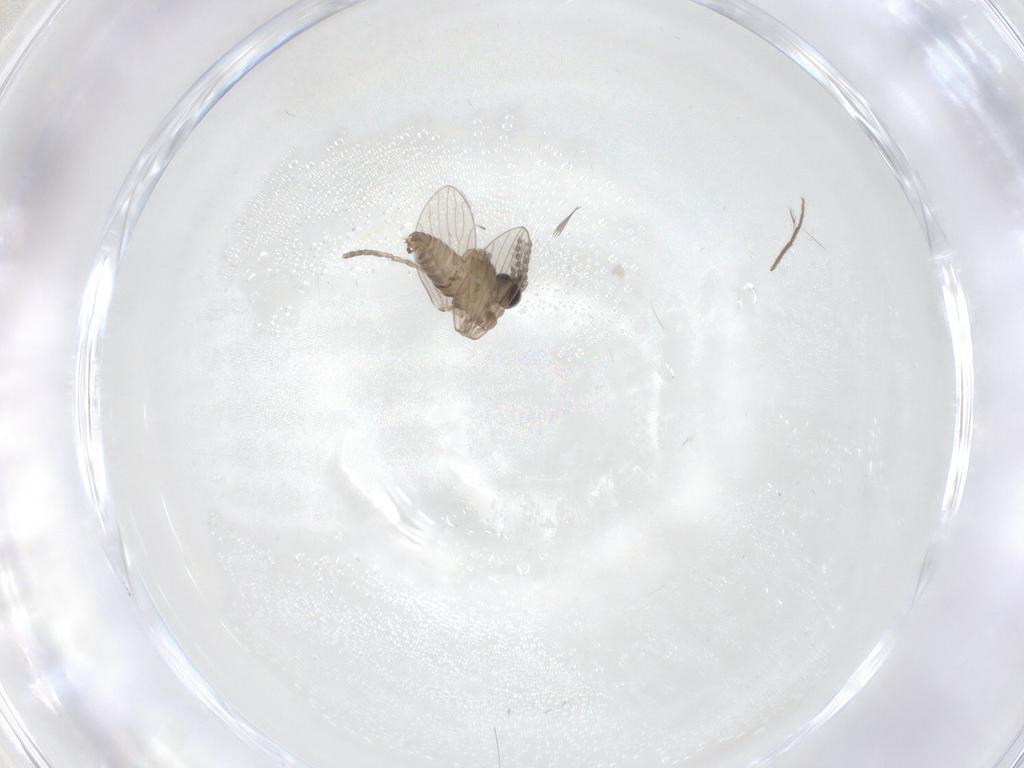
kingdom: Animalia
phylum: Arthropoda
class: Insecta
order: Diptera
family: Psychodidae
